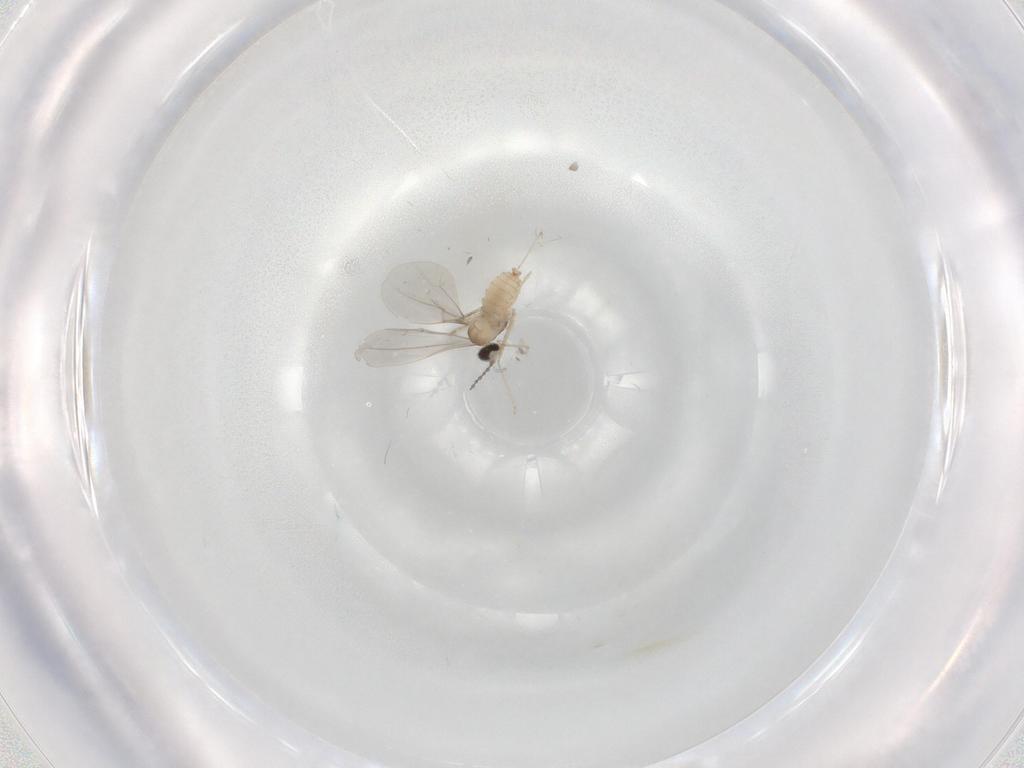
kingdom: Animalia
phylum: Arthropoda
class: Insecta
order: Diptera
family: Cecidomyiidae
